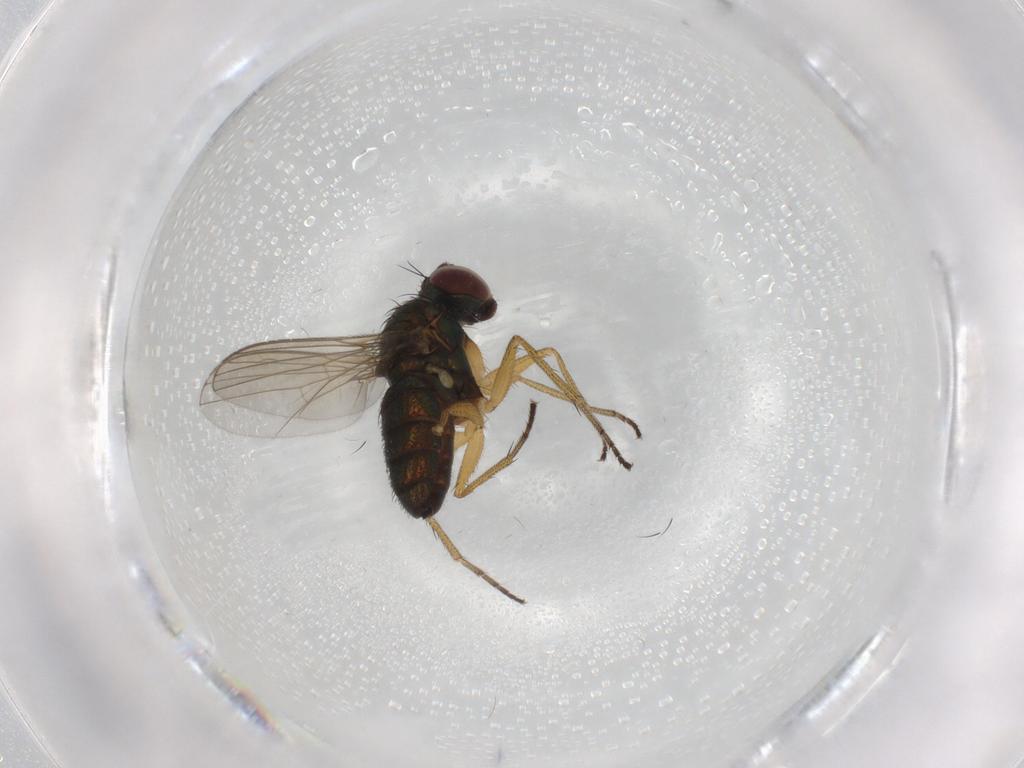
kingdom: Animalia
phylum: Arthropoda
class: Insecta
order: Diptera
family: Dolichopodidae
